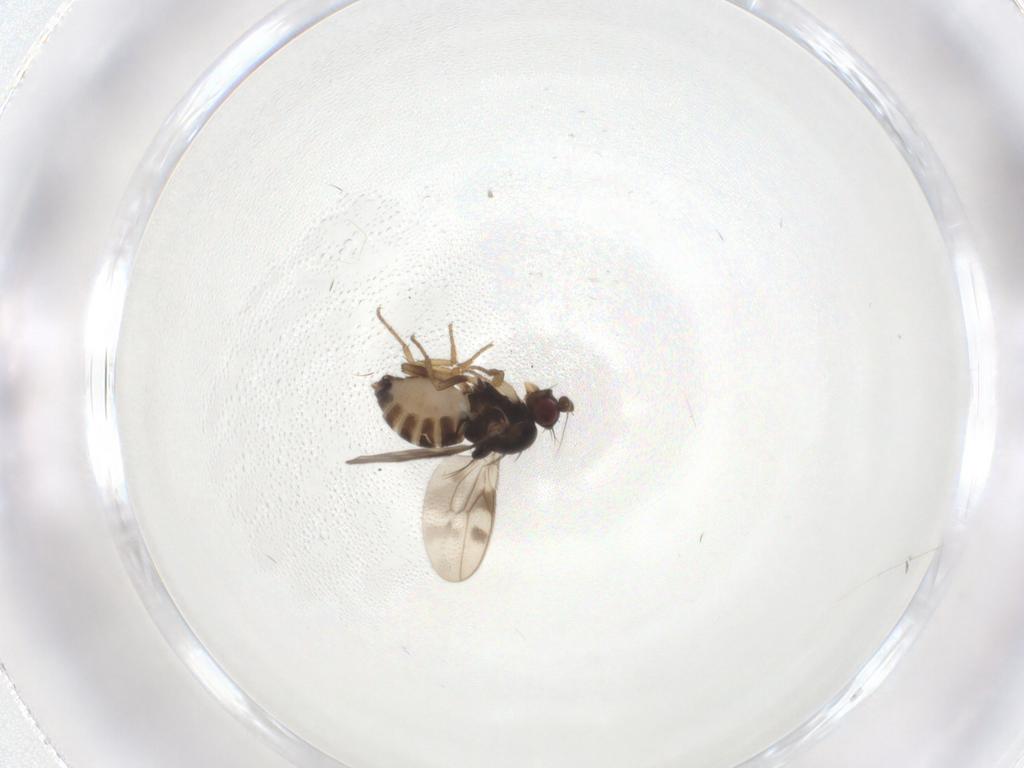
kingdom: Animalia
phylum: Arthropoda
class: Insecta
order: Diptera
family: Sphaeroceridae
